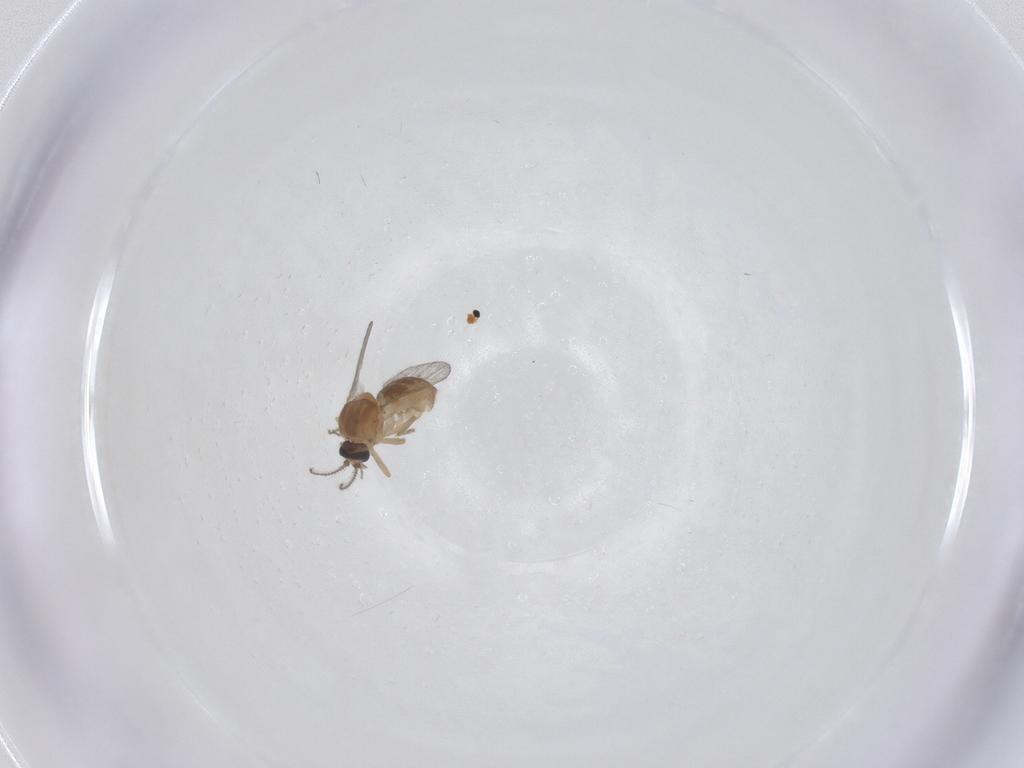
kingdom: Animalia
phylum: Arthropoda
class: Insecta
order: Diptera
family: Ceratopogonidae
